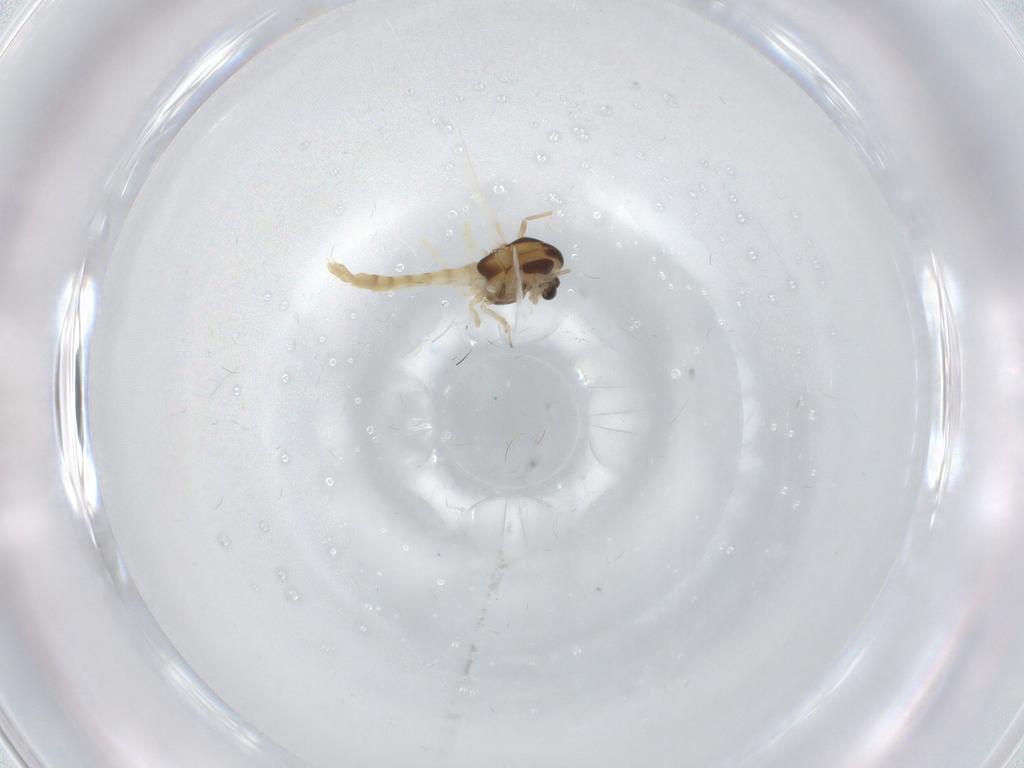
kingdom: Animalia
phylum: Arthropoda
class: Insecta
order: Diptera
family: Chironomidae
